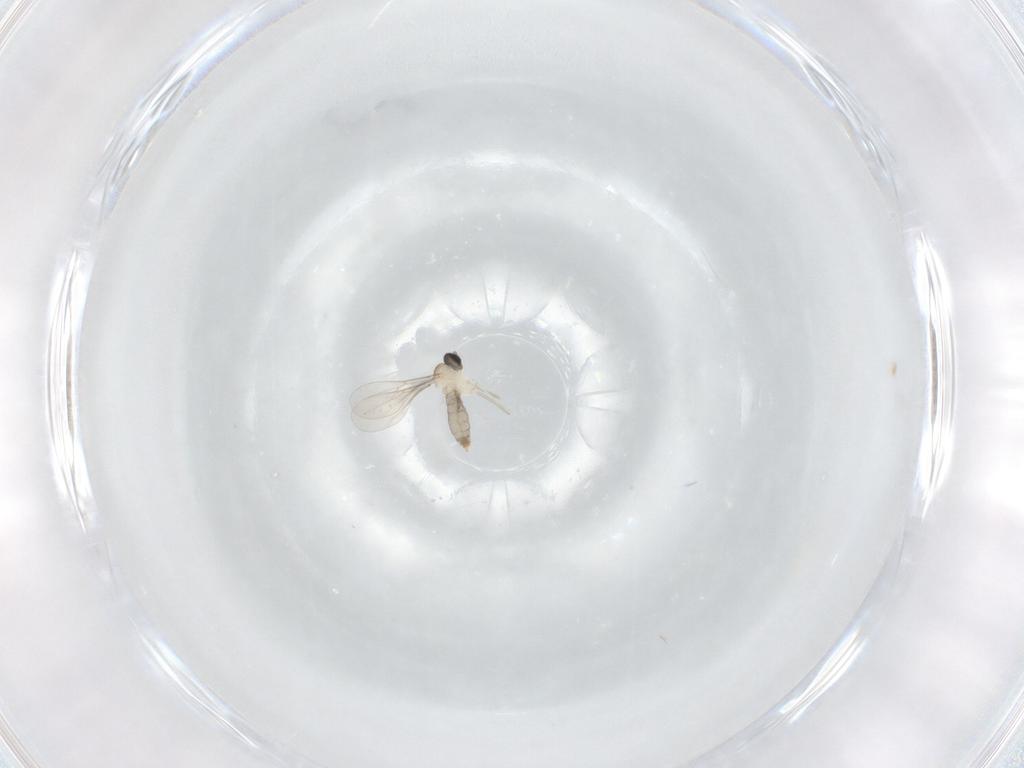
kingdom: Animalia
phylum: Arthropoda
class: Insecta
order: Diptera
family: Cecidomyiidae
